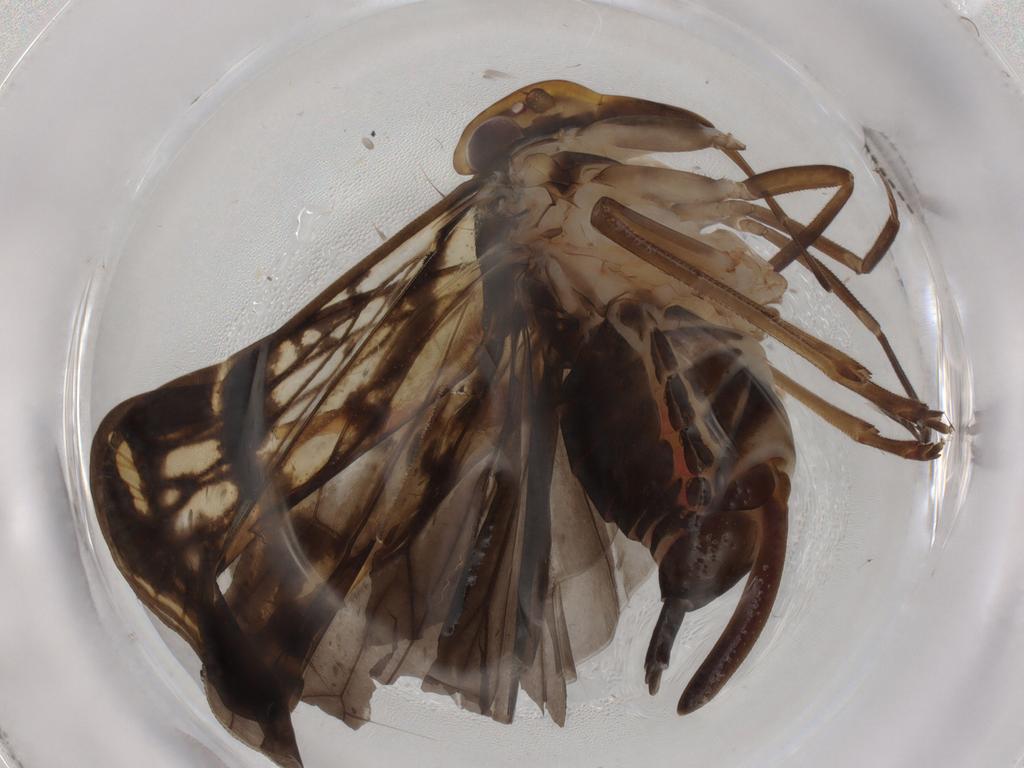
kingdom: Animalia
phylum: Arthropoda
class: Insecta
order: Hemiptera
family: Cixiidae
